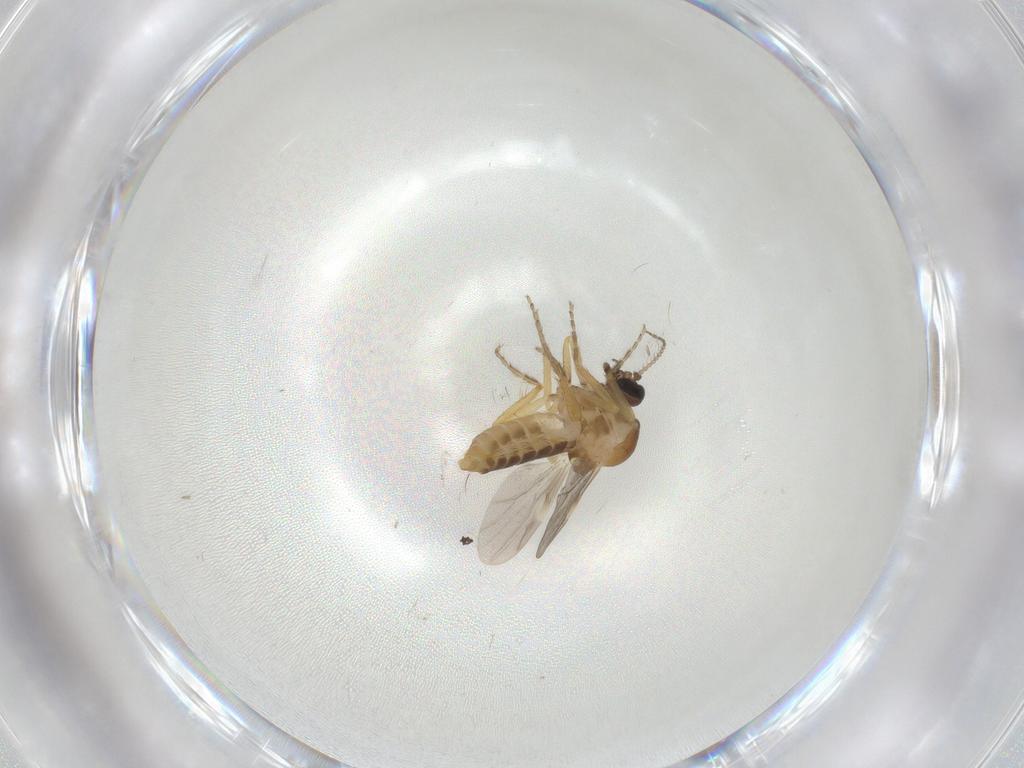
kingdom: Animalia
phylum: Arthropoda
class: Insecta
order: Diptera
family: Ceratopogonidae
